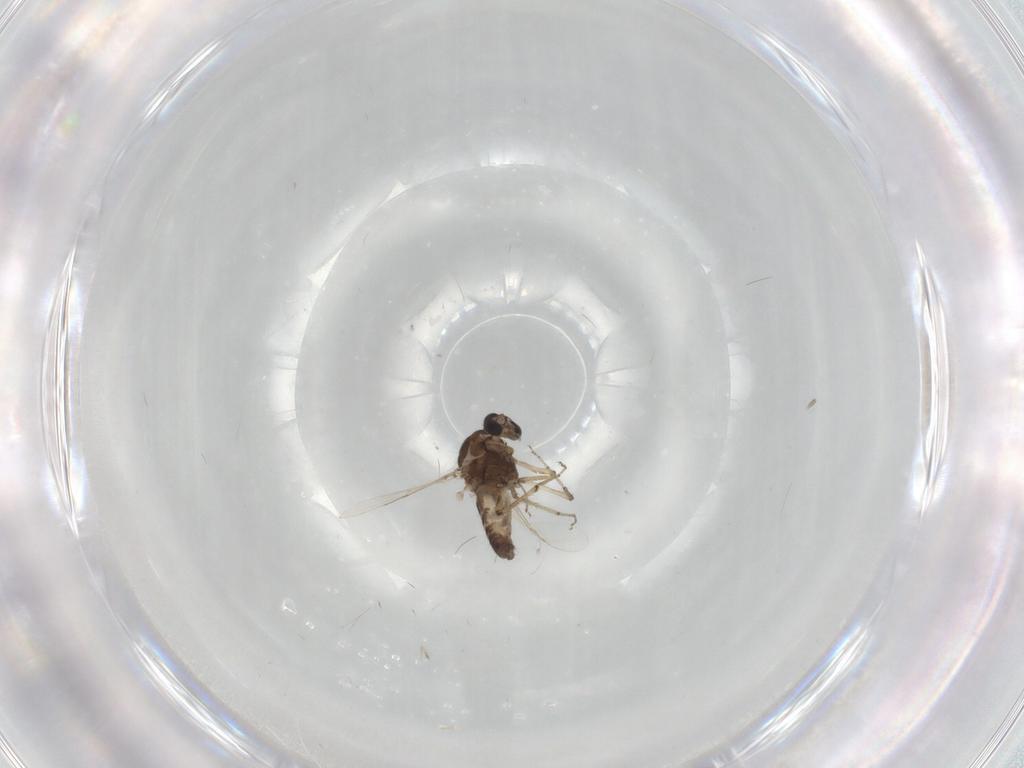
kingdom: Animalia
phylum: Arthropoda
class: Insecta
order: Diptera
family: Ceratopogonidae
